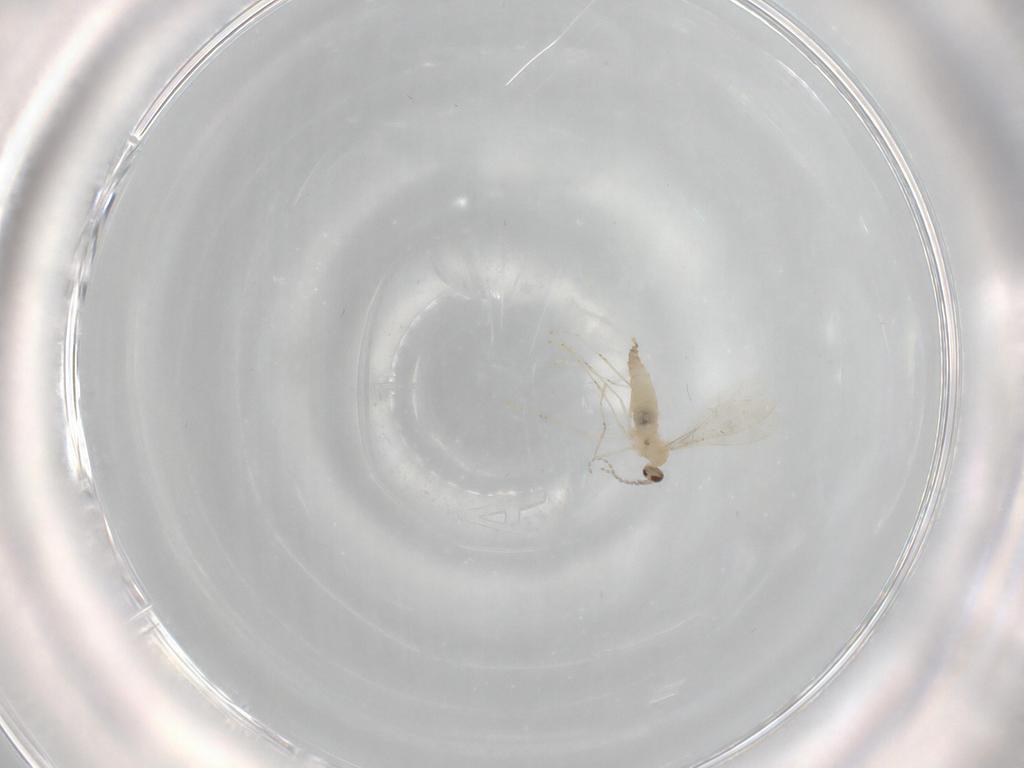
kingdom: Animalia
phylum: Arthropoda
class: Insecta
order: Diptera
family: Cecidomyiidae
